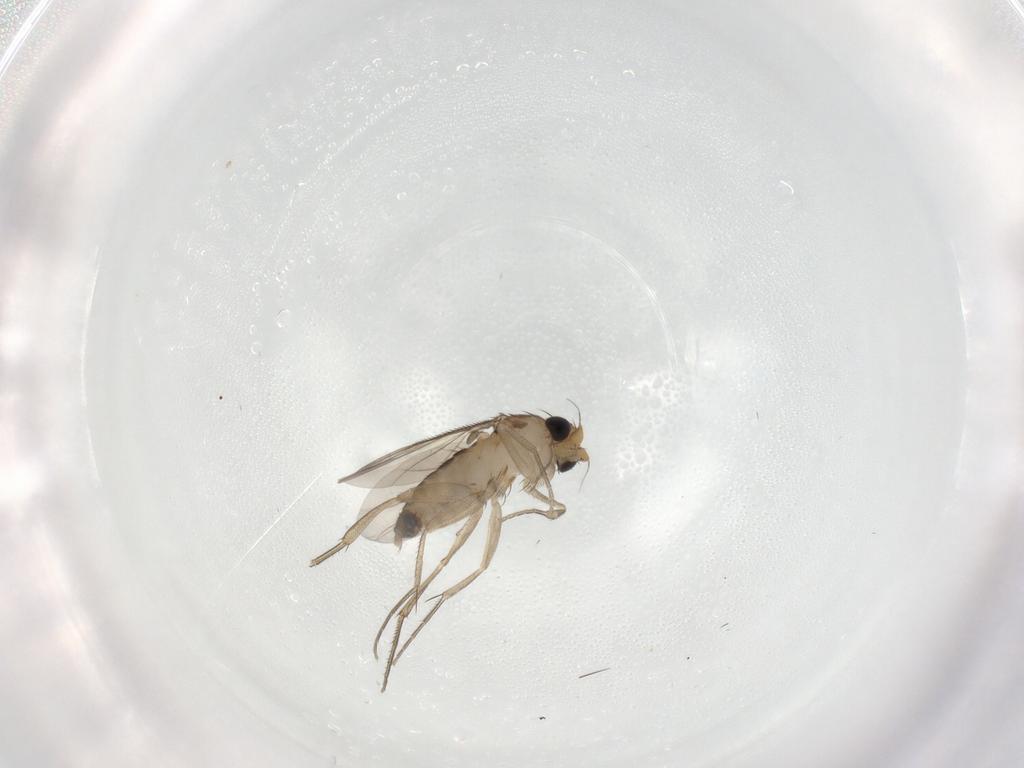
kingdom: Animalia
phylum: Arthropoda
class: Insecta
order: Diptera
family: Phoridae
